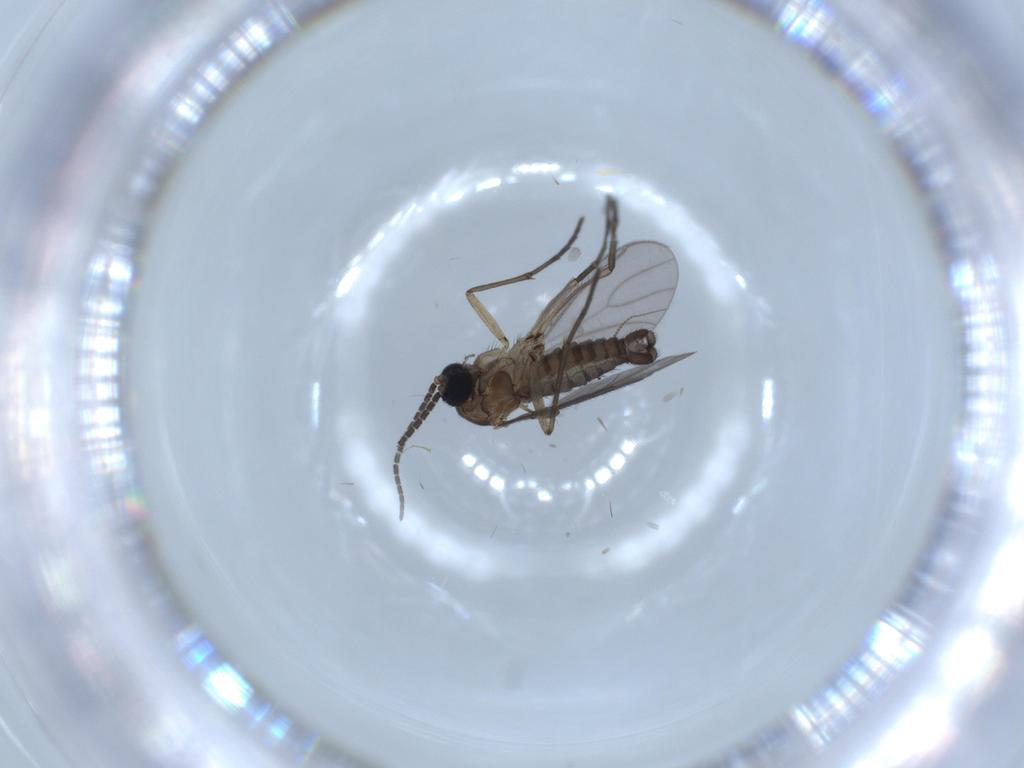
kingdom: Animalia
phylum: Arthropoda
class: Insecta
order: Diptera
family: Sciaridae
